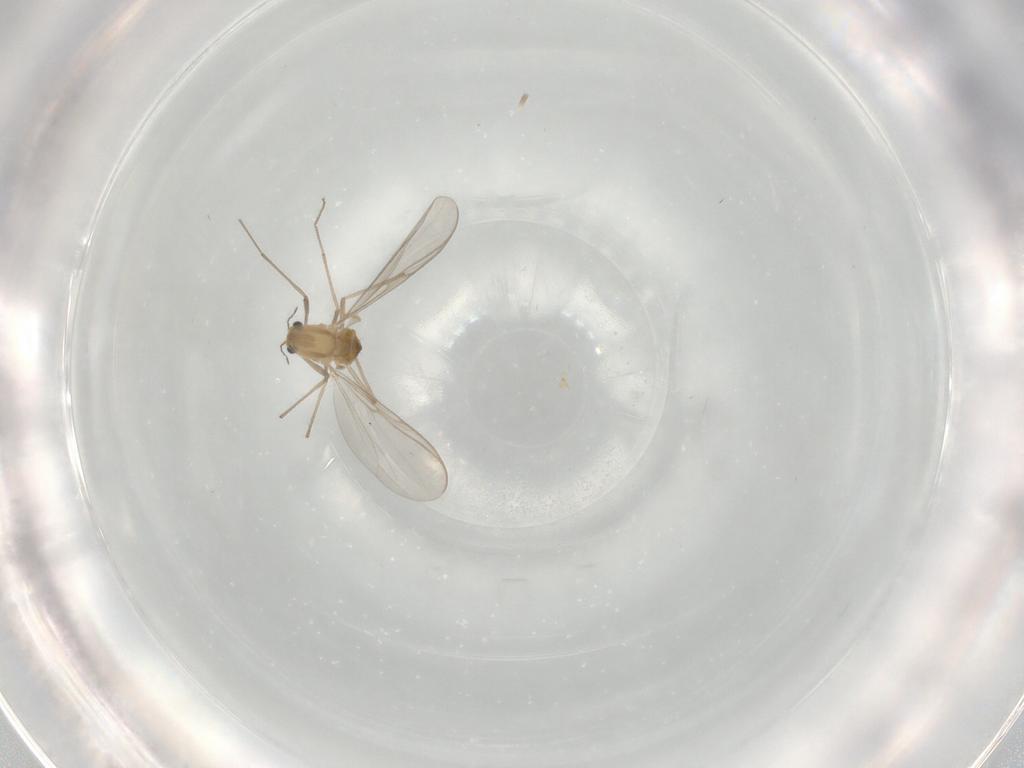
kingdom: Animalia
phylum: Arthropoda
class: Insecta
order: Diptera
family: Chironomidae
